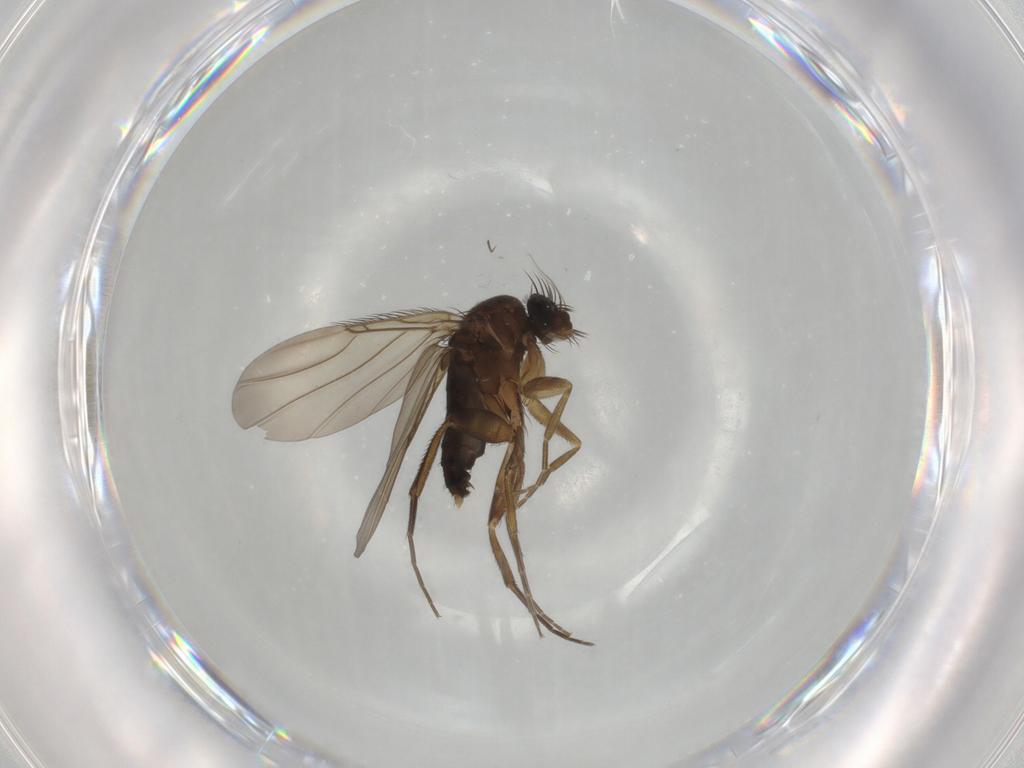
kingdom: Animalia
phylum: Arthropoda
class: Insecta
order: Diptera
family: Phoridae
